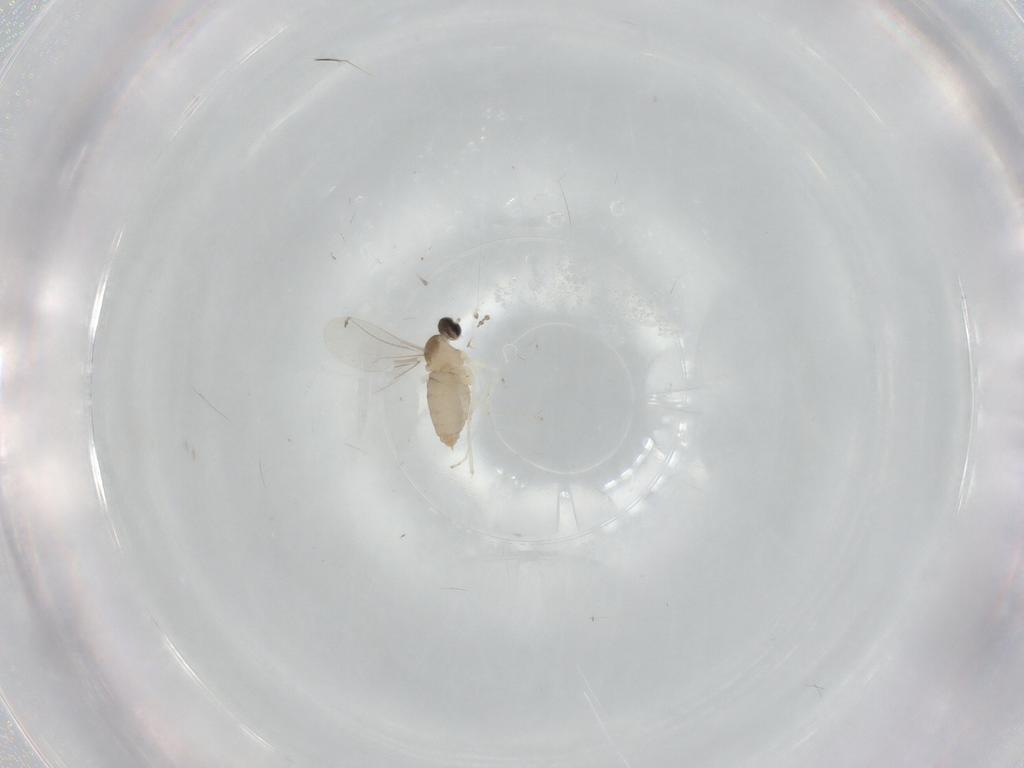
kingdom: Animalia
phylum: Arthropoda
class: Insecta
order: Diptera
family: Cecidomyiidae
